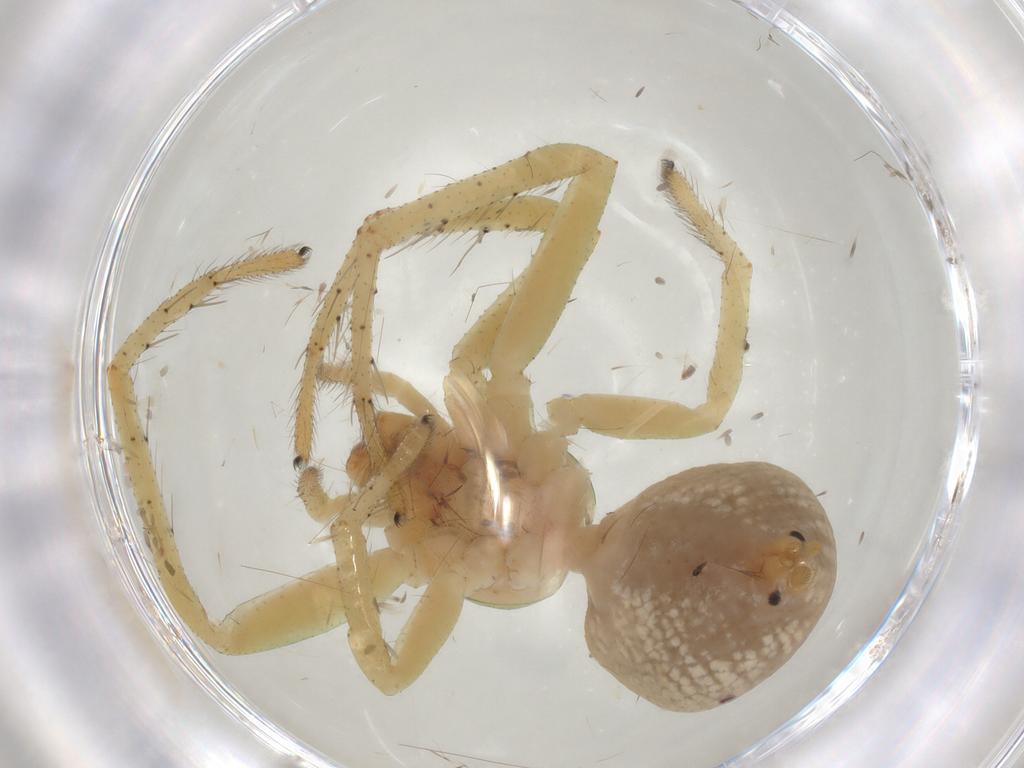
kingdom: Animalia
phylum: Arthropoda
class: Arachnida
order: Araneae
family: Thomisidae
